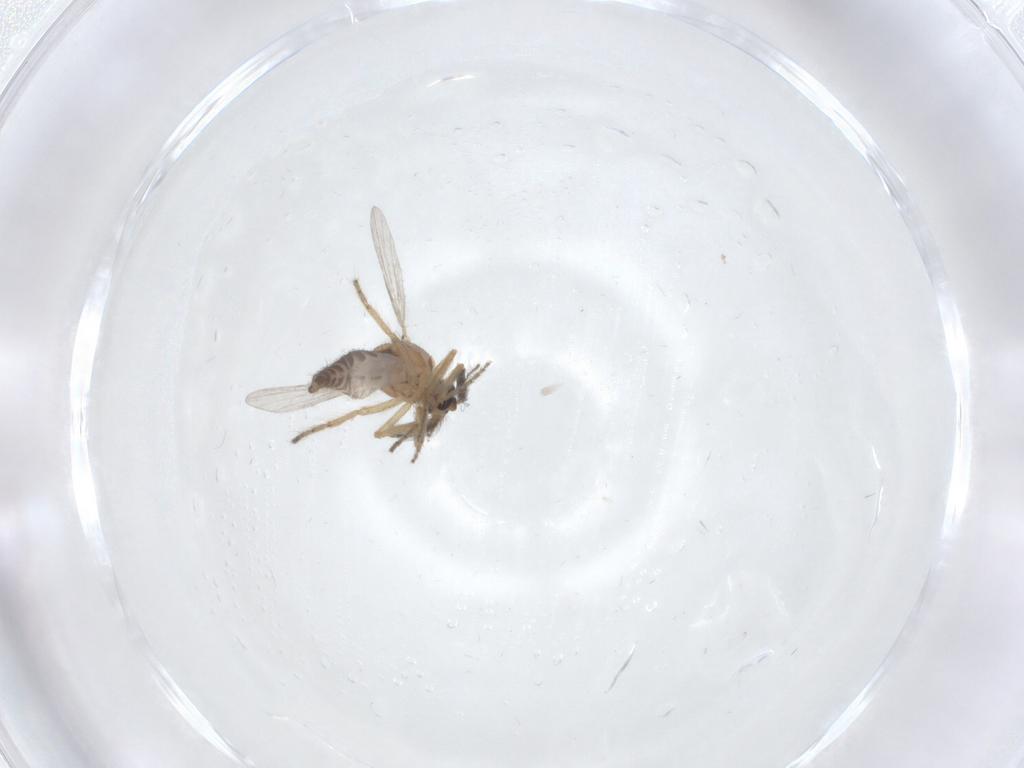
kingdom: Animalia
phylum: Arthropoda
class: Insecta
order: Diptera
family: Ceratopogonidae
